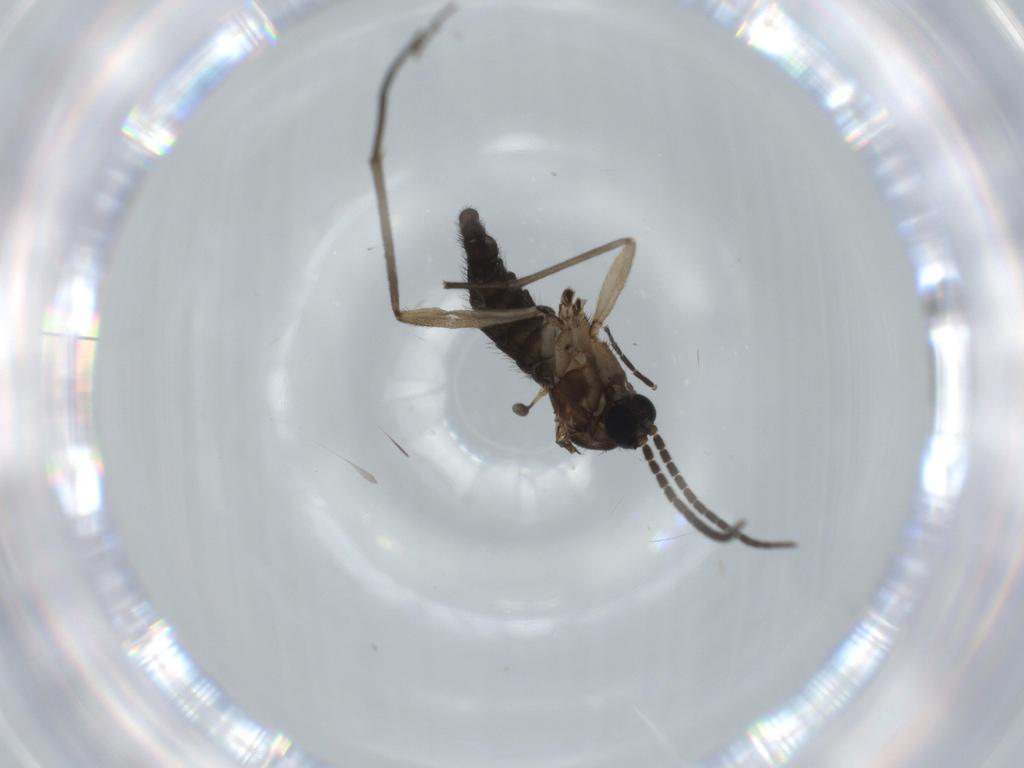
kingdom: Animalia
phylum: Arthropoda
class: Insecta
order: Diptera
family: Sciaridae
